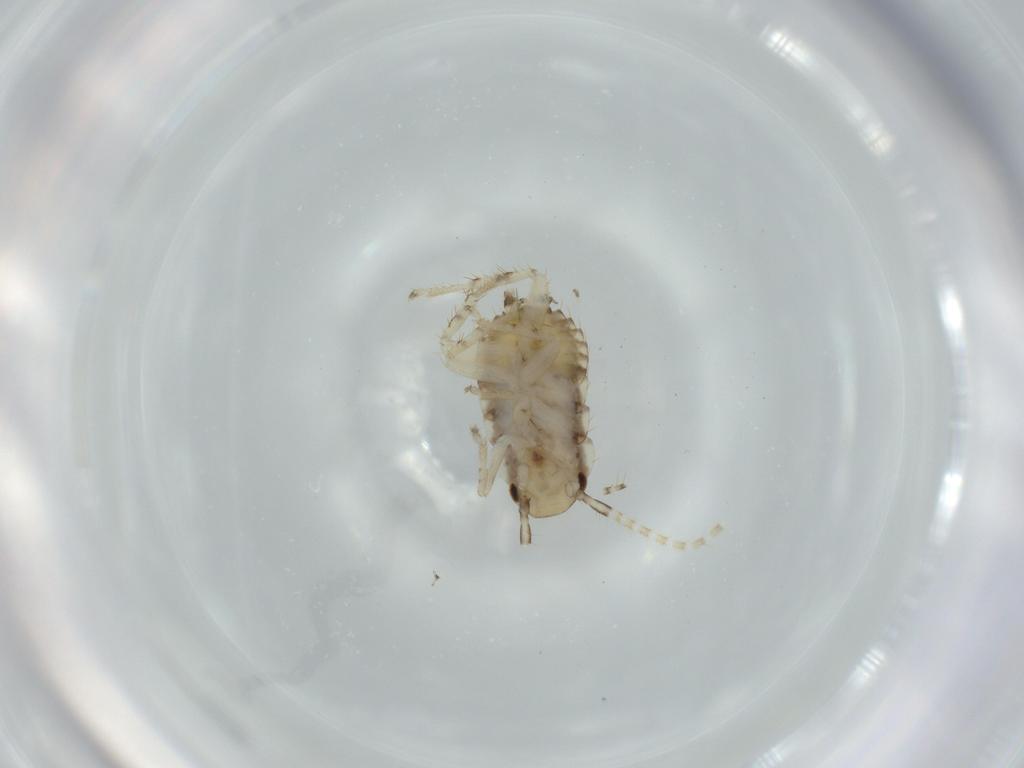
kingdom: Animalia
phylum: Arthropoda
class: Insecta
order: Blattodea
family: Ectobiidae
